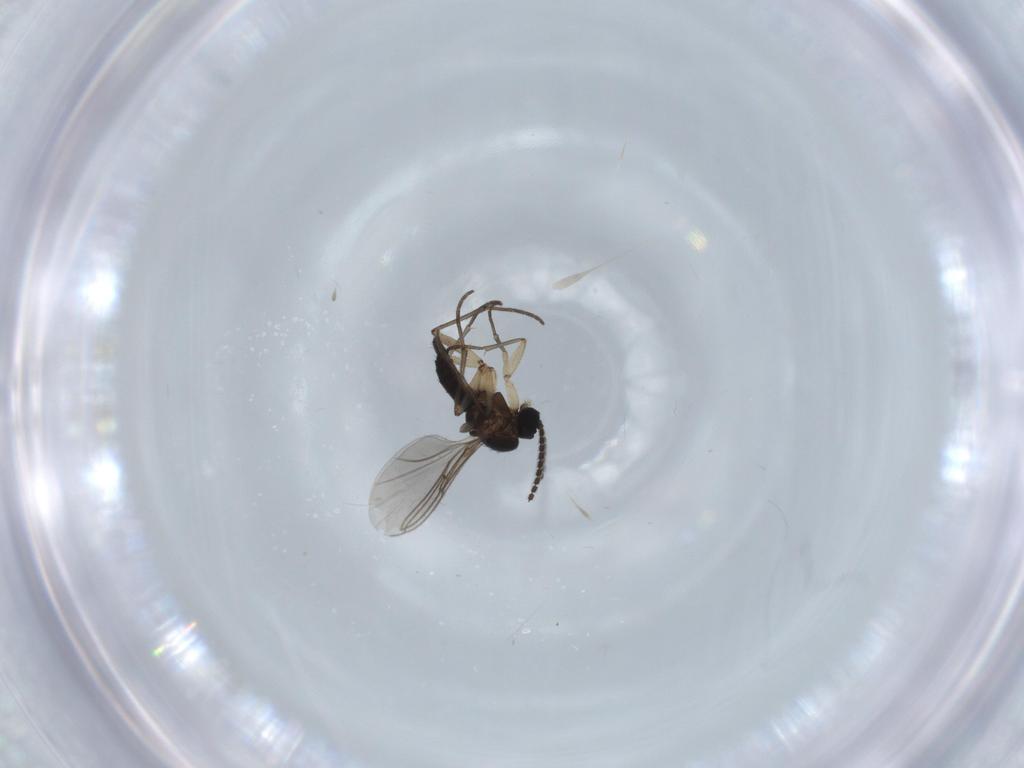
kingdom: Animalia
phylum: Arthropoda
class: Insecta
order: Diptera
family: Sciaridae
